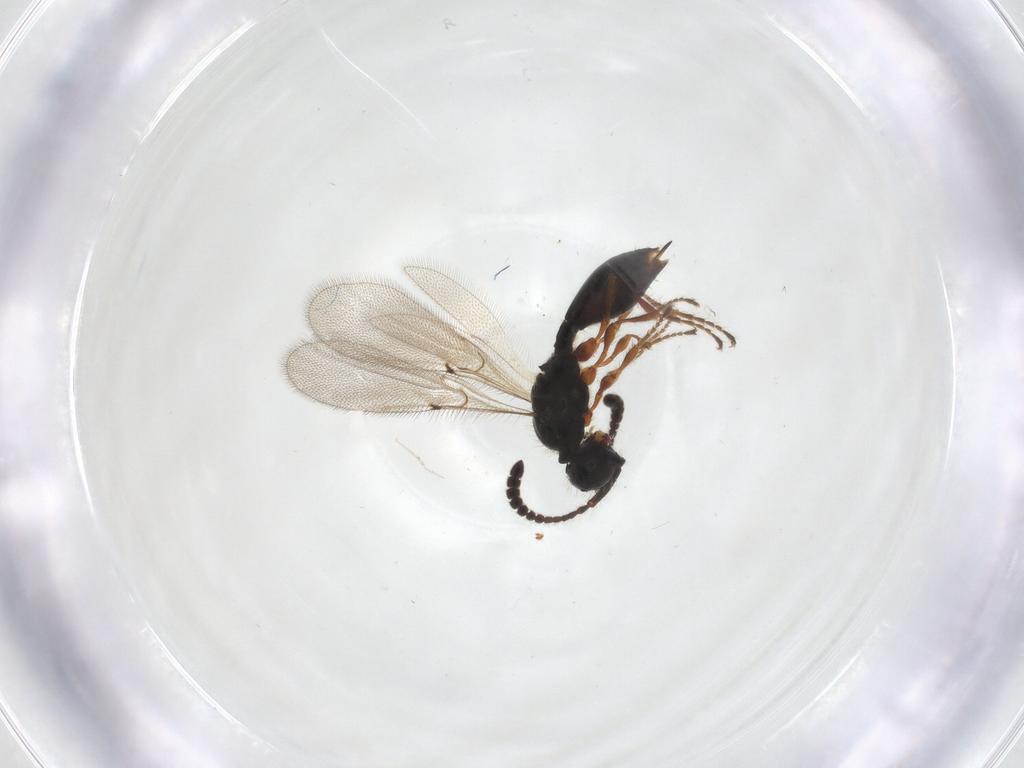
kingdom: Animalia
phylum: Arthropoda
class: Insecta
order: Hymenoptera
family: Diapriidae
